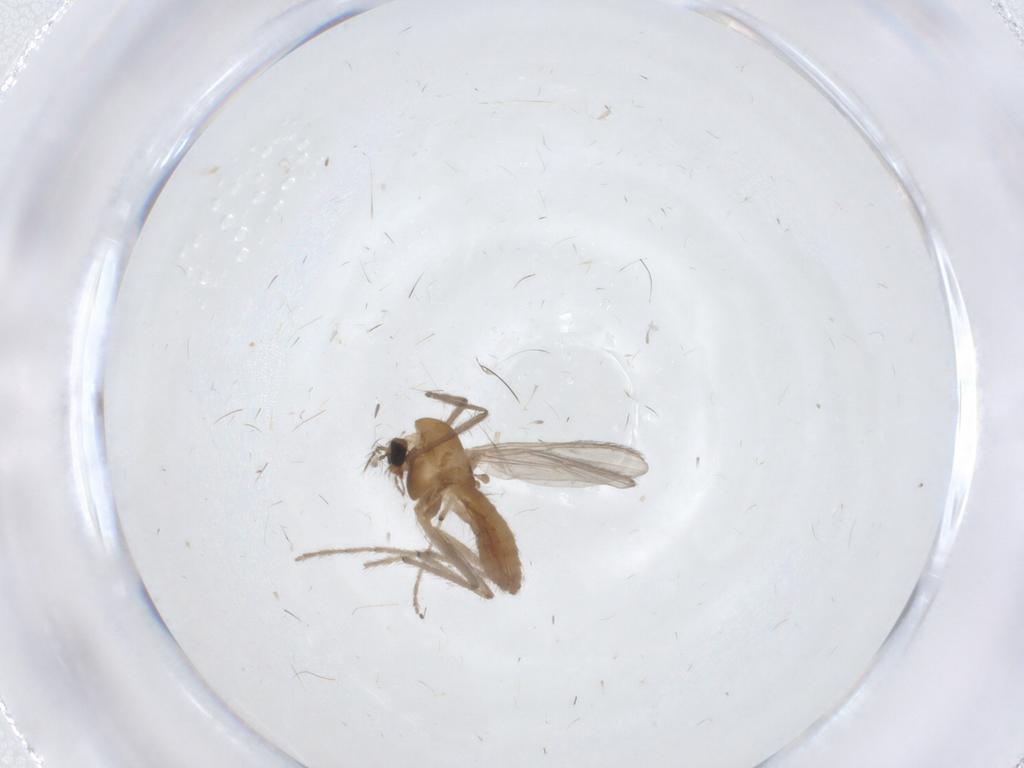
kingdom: Animalia
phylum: Arthropoda
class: Insecta
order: Diptera
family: Chironomidae
